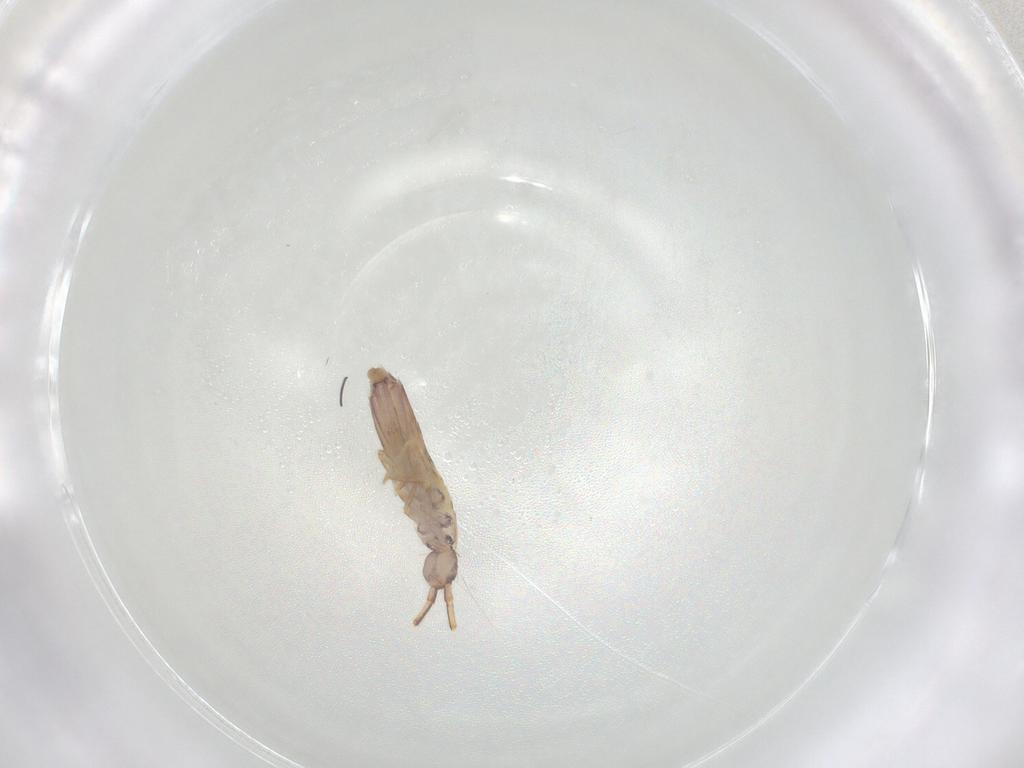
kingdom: Animalia
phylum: Arthropoda
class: Collembola
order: Entomobryomorpha
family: Entomobryidae
